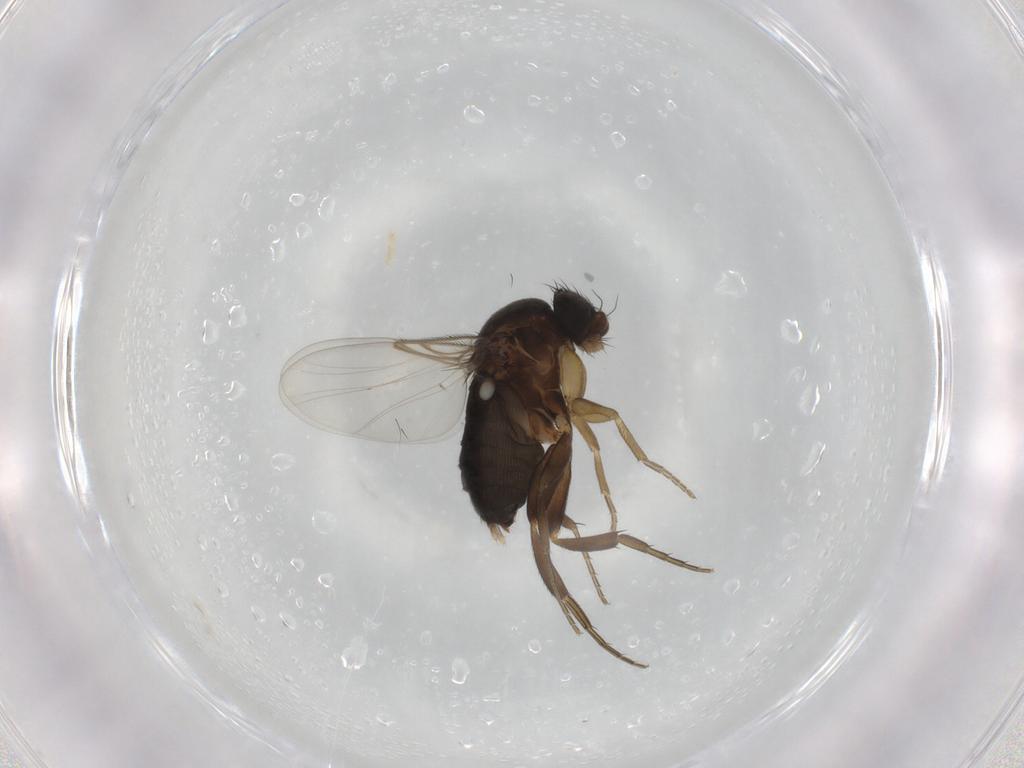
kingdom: Animalia
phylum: Arthropoda
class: Insecta
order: Diptera
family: Phoridae
